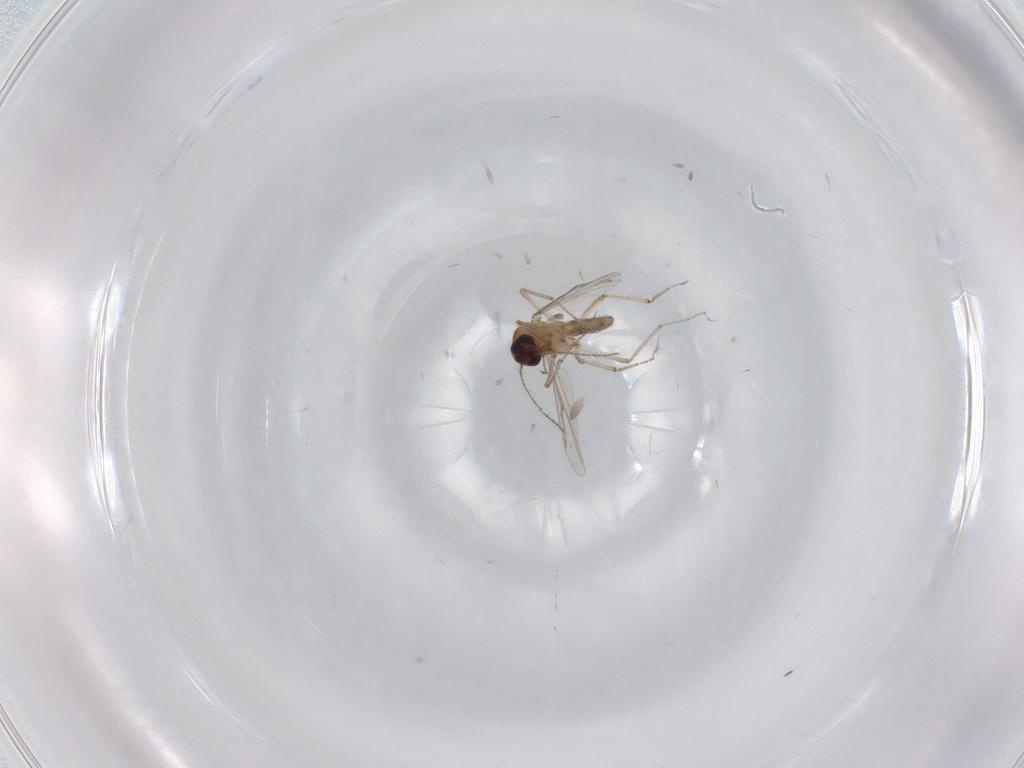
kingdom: Animalia
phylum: Arthropoda
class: Insecta
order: Diptera
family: Ceratopogonidae
